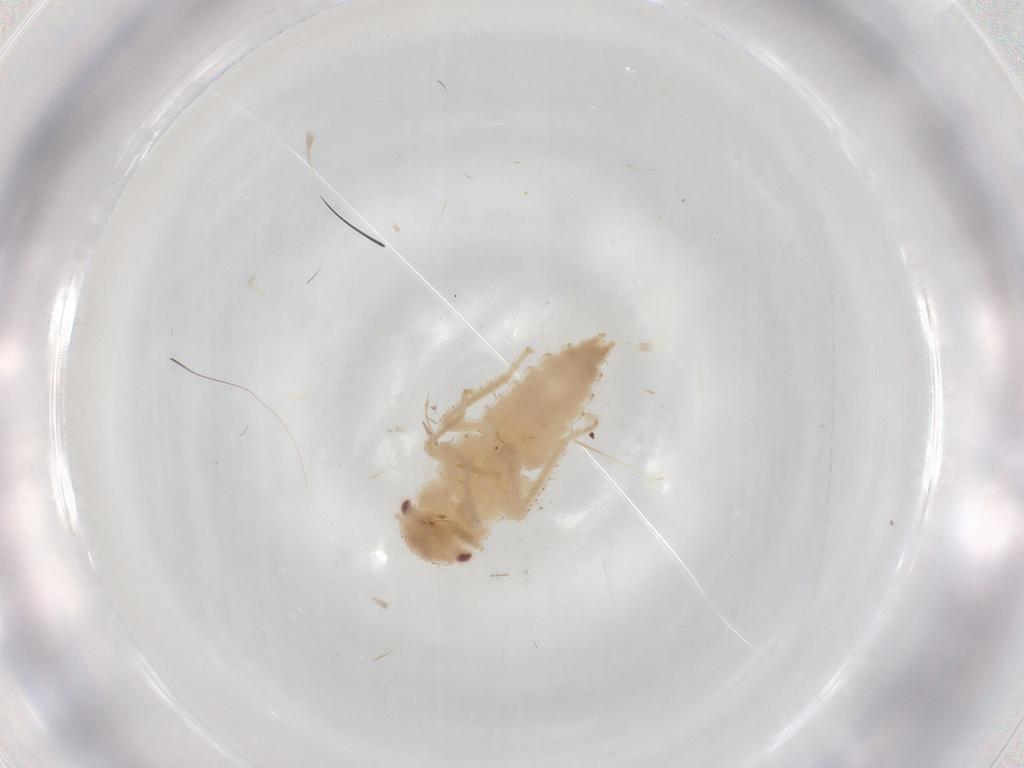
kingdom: Animalia
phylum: Arthropoda
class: Insecta
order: Hemiptera
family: Cicadellidae
